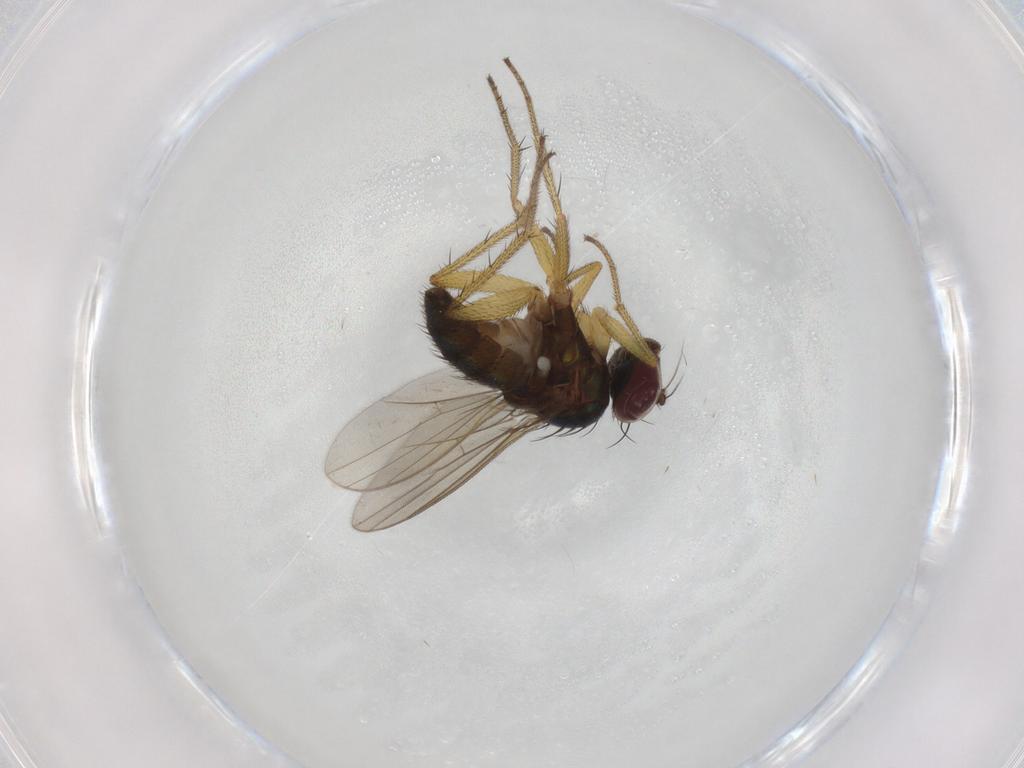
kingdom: Animalia
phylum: Arthropoda
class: Insecta
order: Diptera
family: Dolichopodidae
